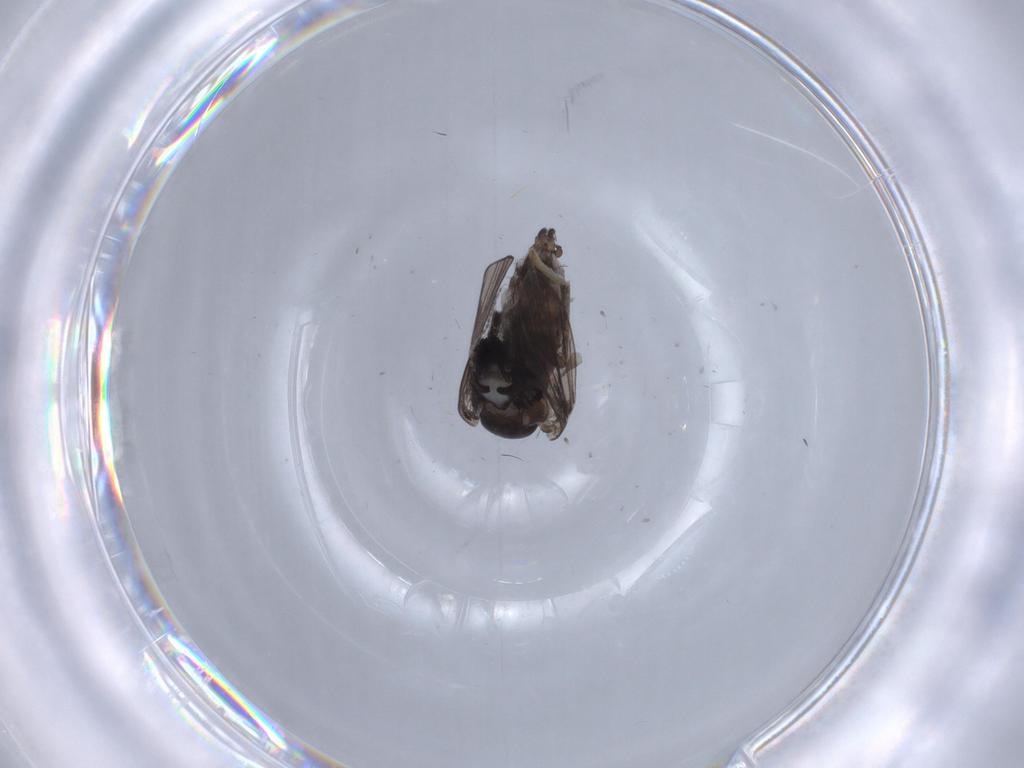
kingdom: Animalia
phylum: Arthropoda
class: Insecta
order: Diptera
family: Psychodidae
